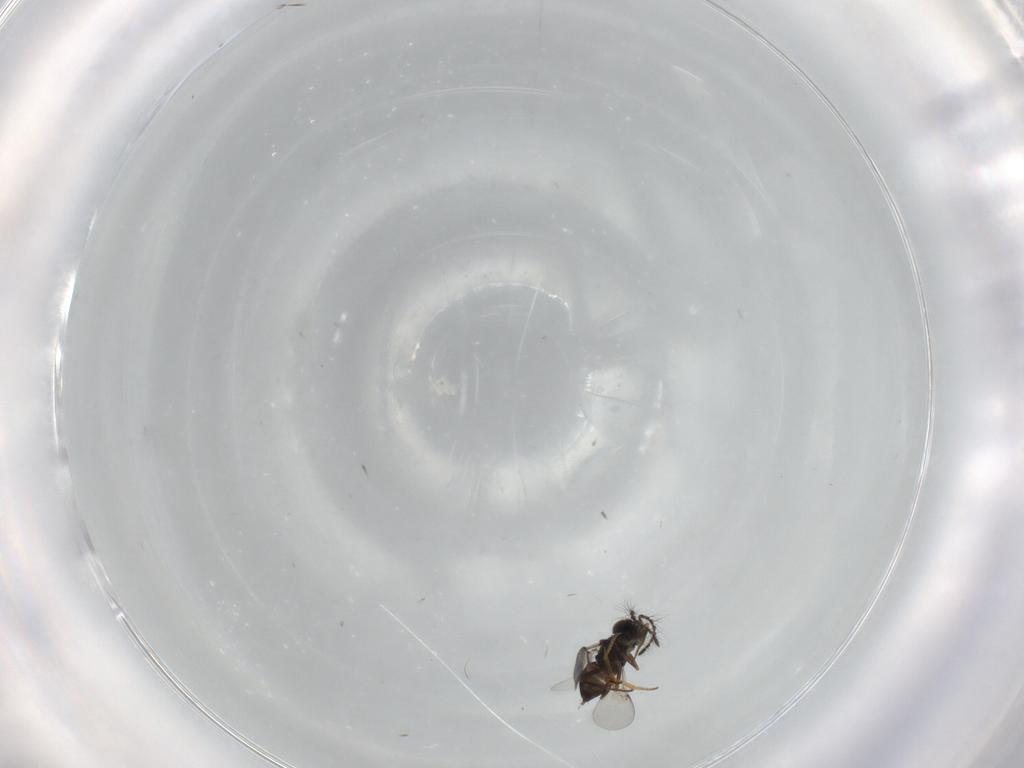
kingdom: Animalia
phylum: Arthropoda
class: Insecta
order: Hymenoptera
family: Encyrtidae
